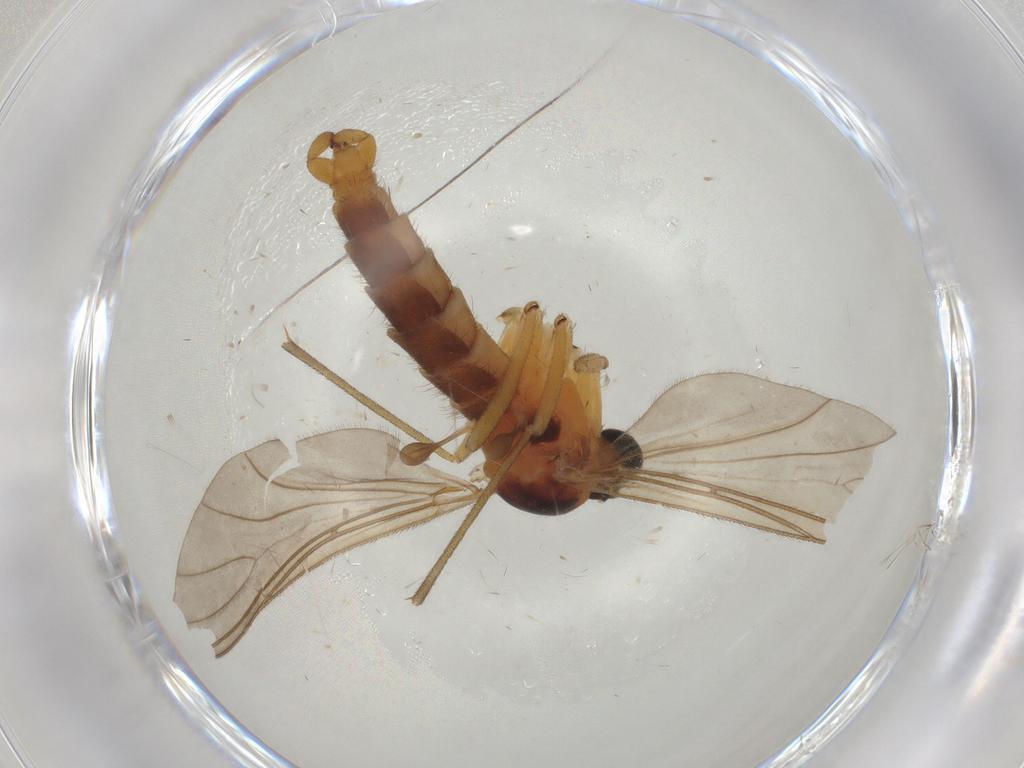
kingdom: Animalia
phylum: Arthropoda
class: Insecta
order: Diptera
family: Sciaridae
